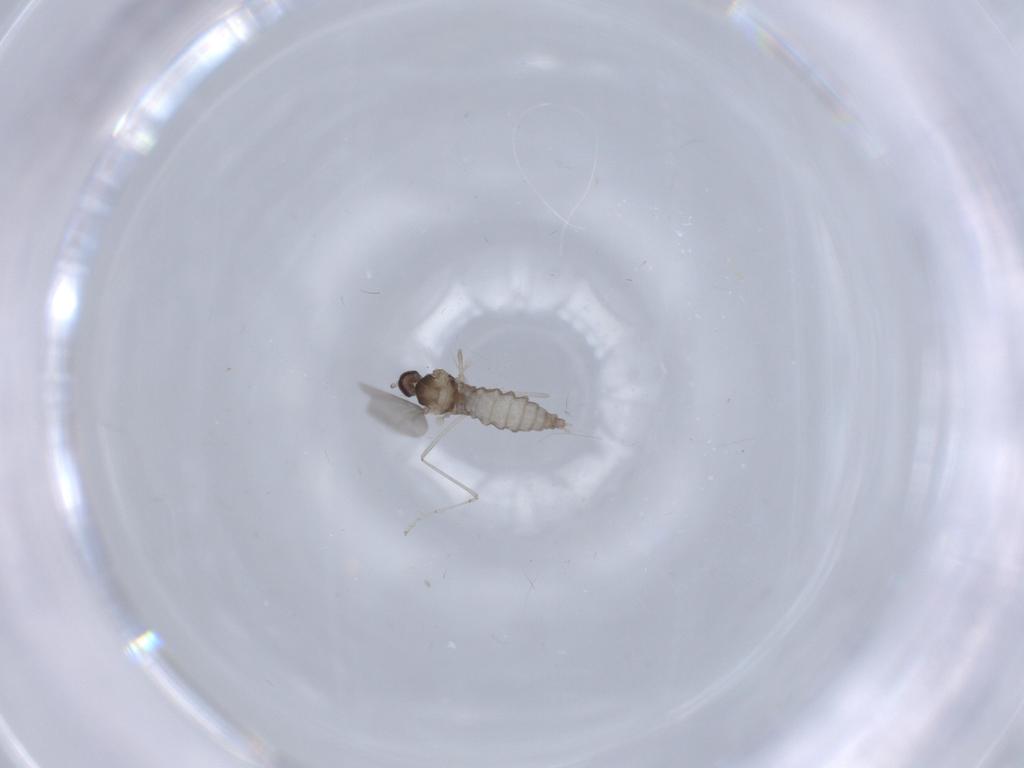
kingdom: Animalia
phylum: Arthropoda
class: Insecta
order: Diptera
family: Cecidomyiidae
